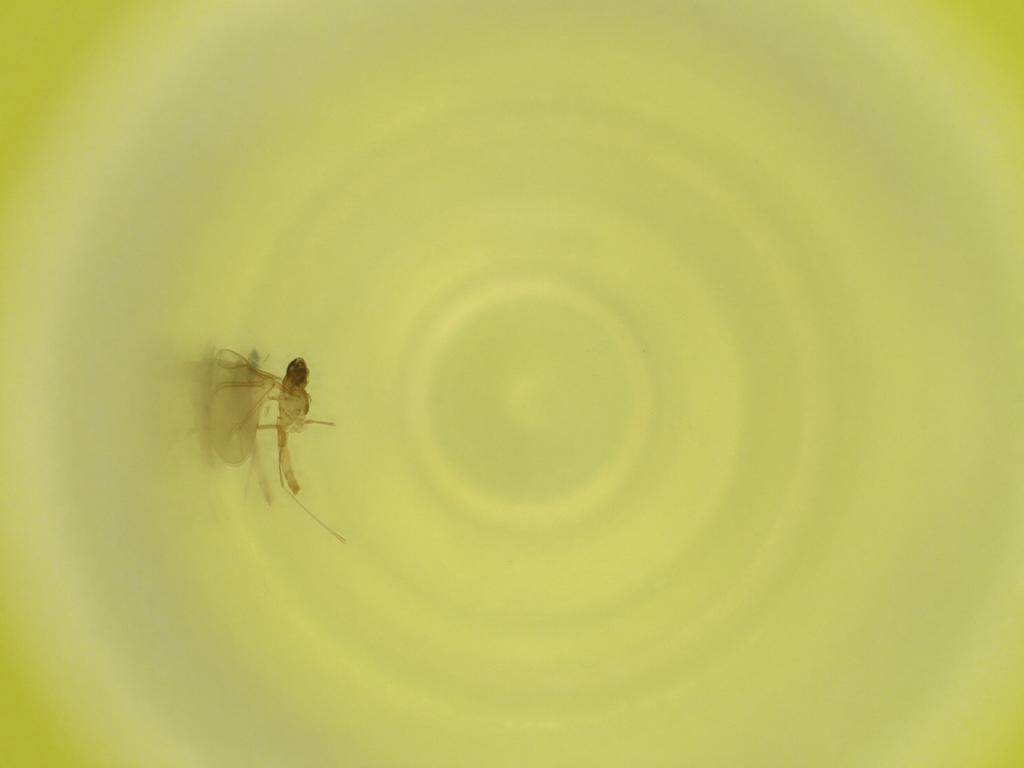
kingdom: Animalia
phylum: Arthropoda
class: Insecta
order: Diptera
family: Cecidomyiidae
